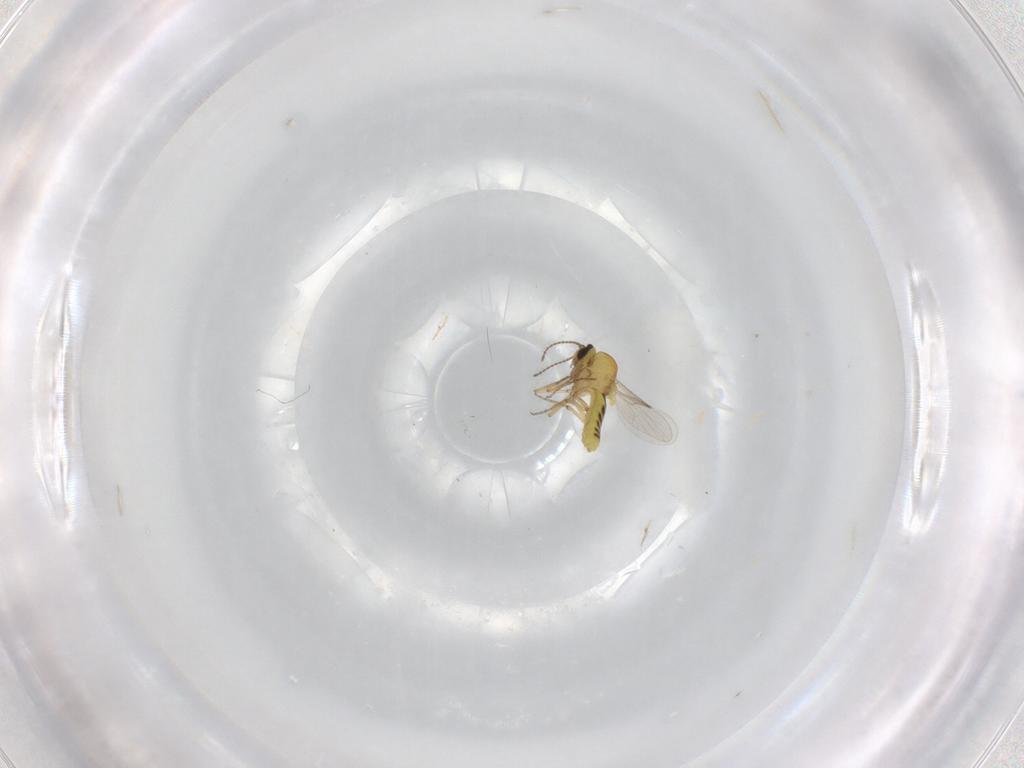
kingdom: Animalia
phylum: Arthropoda
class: Insecta
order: Diptera
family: Ceratopogonidae
